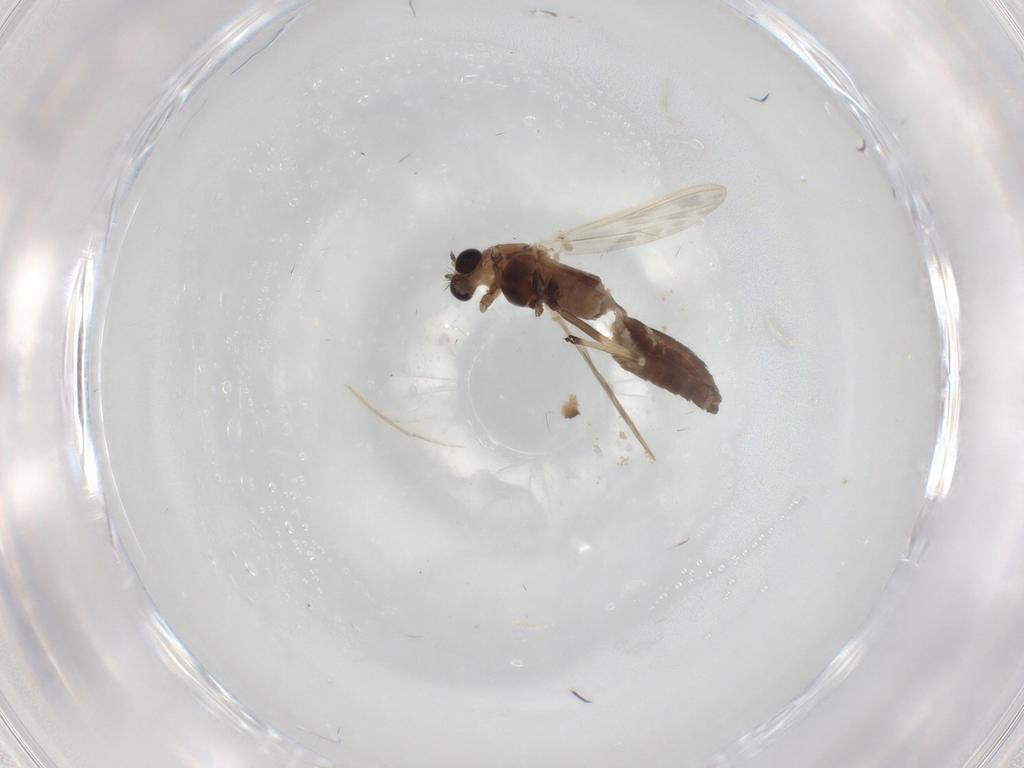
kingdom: Animalia
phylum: Arthropoda
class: Insecta
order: Diptera
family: Chironomidae
